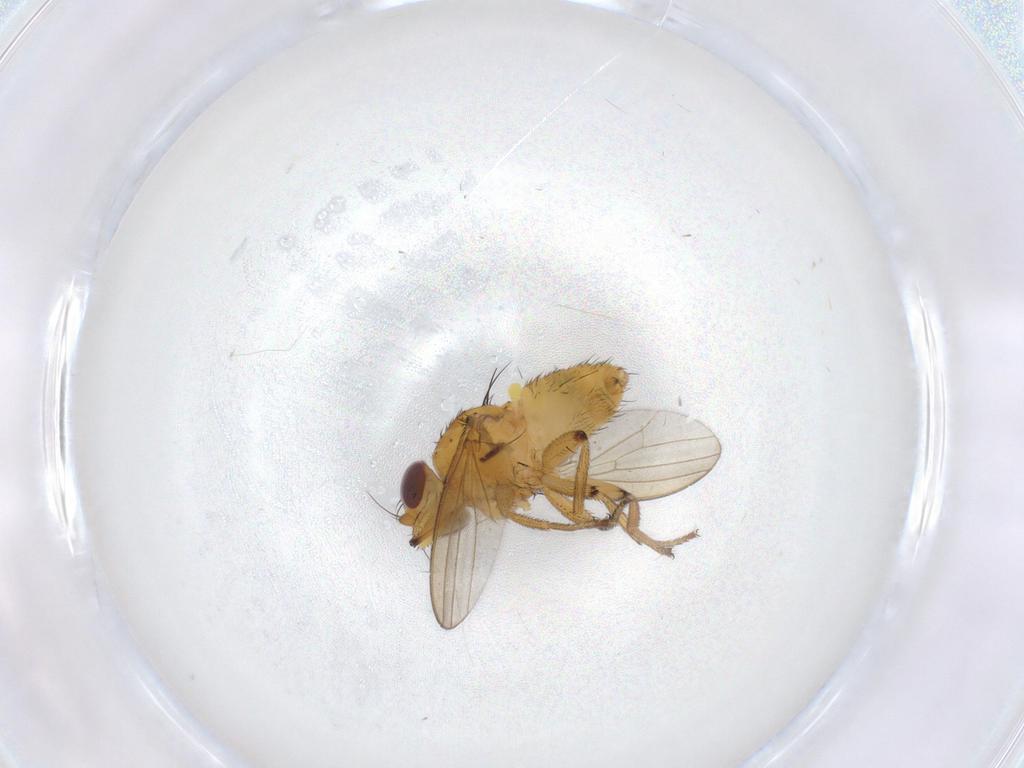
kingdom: Animalia
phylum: Arthropoda
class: Insecta
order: Diptera
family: Milichiidae
